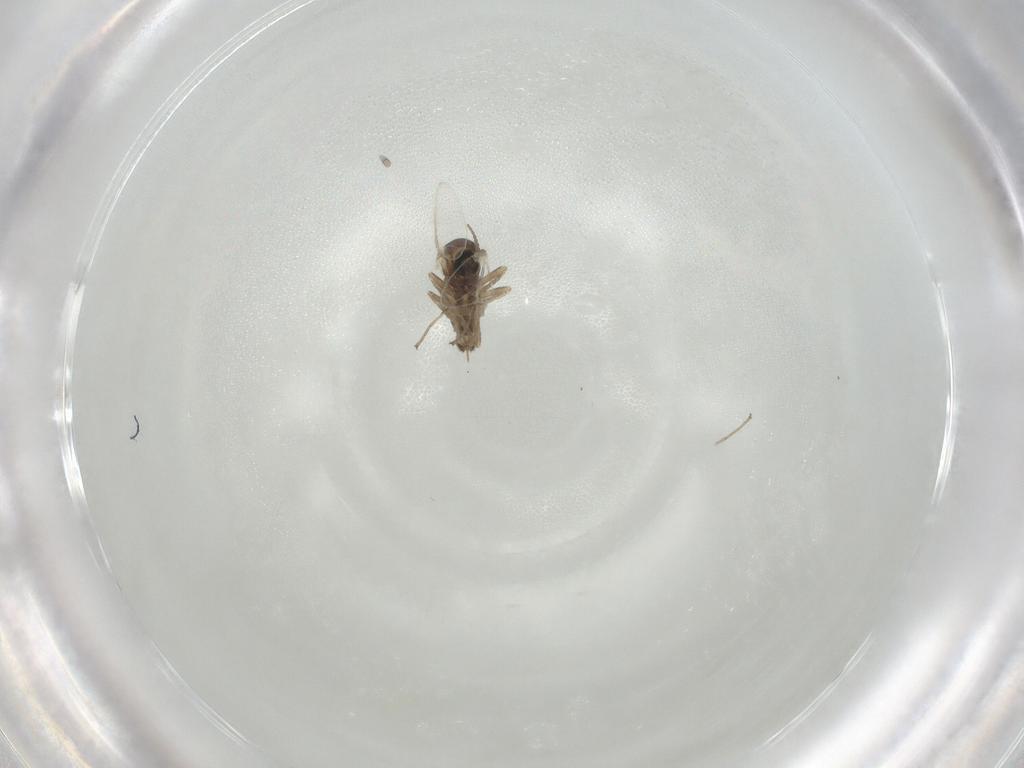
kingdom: Animalia
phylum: Arthropoda
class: Insecta
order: Diptera
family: Cecidomyiidae
